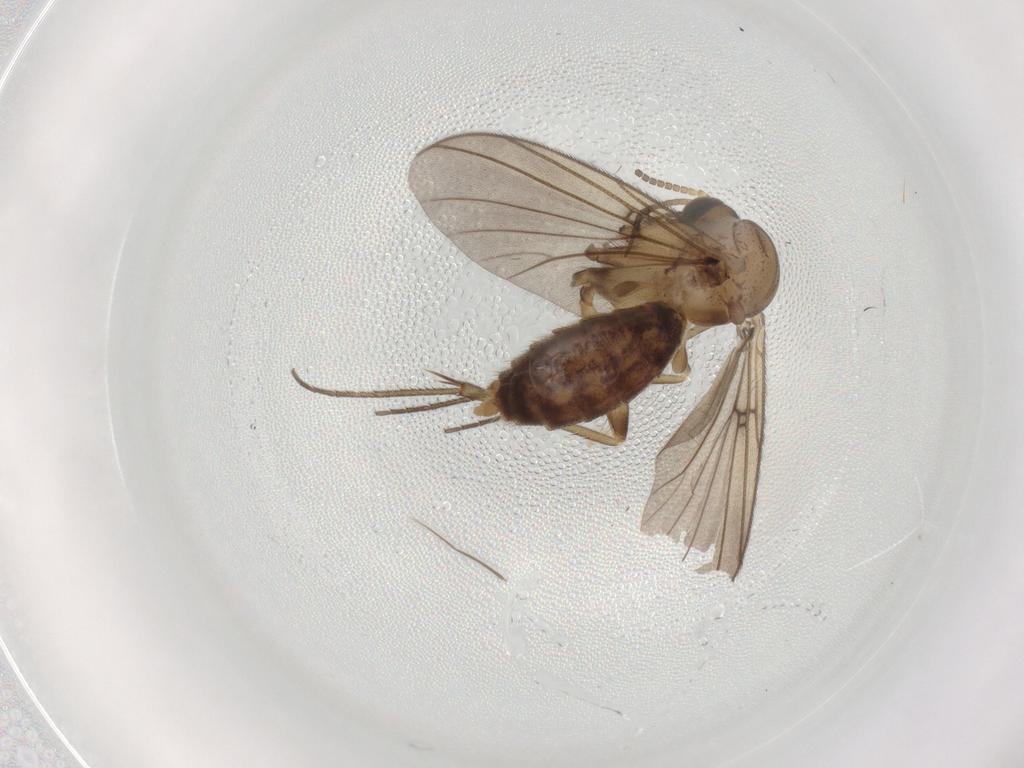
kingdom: Animalia
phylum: Arthropoda
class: Insecta
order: Diptera
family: Mycetophilidae
